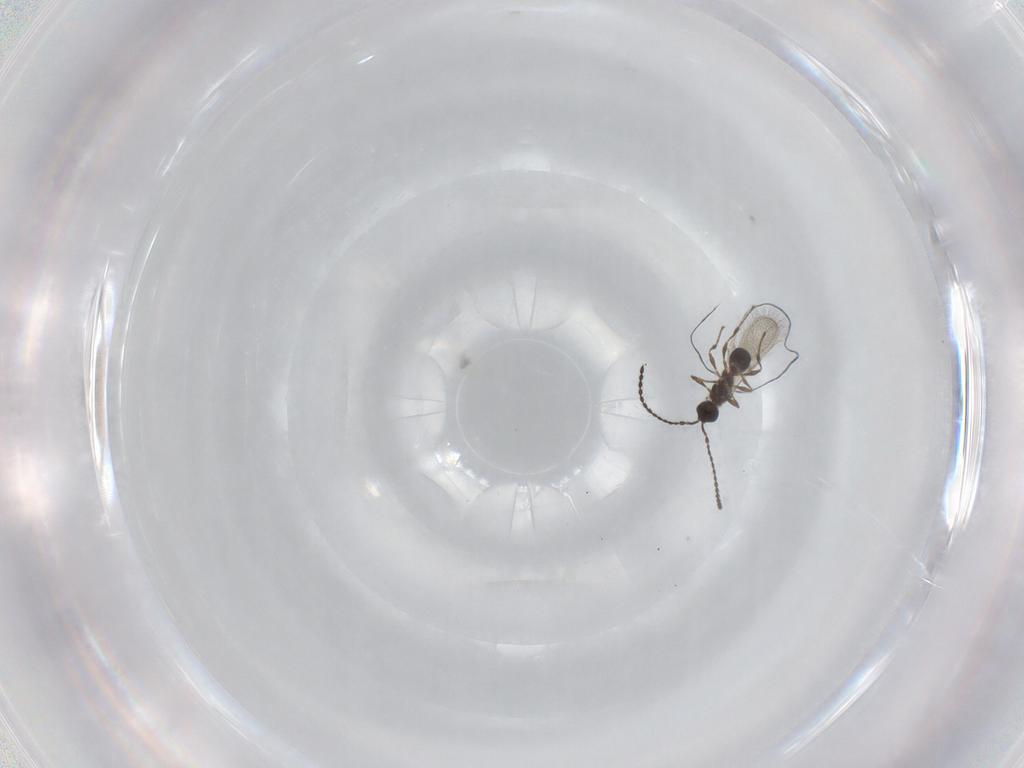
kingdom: Animalia
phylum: Arthropoda
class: Insecta
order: Hymenoptera
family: Diapriidae
